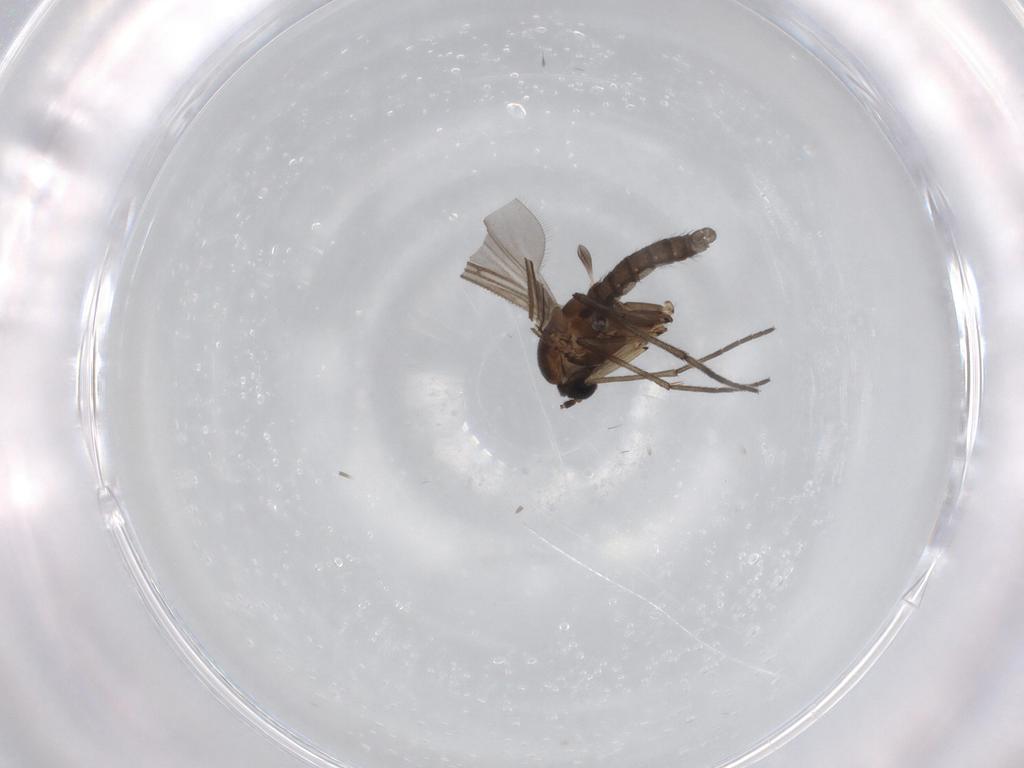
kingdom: Animalia
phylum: Arthropoda
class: Insecta
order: Diptera
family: Sciaridae
